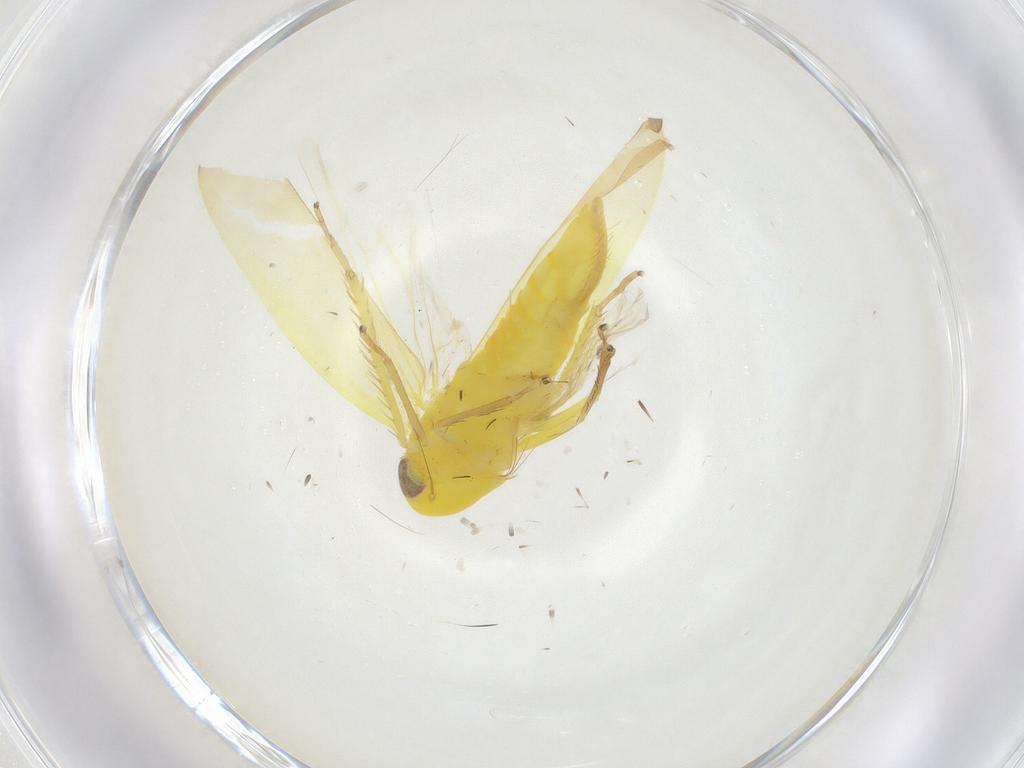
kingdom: Animalia
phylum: Arthropoda
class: Insecta
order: Hemiptera
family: Cicadellidae
